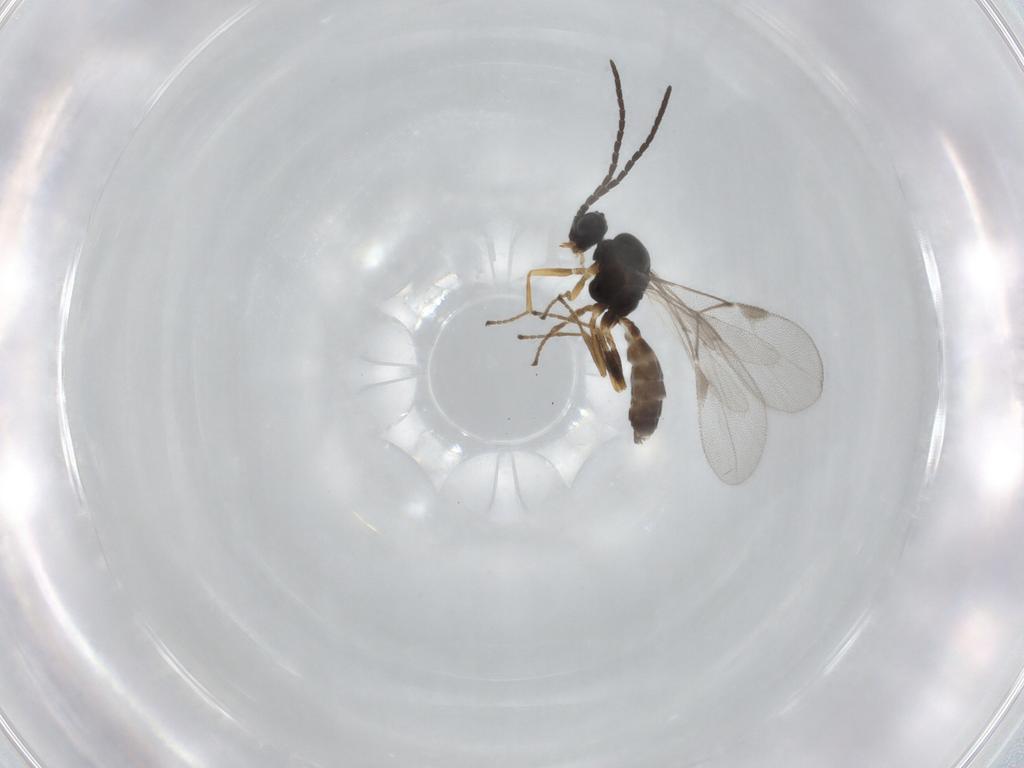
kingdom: Animalia
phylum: Arthropoda
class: Insecta
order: Hymenoptera
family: Braconidae
